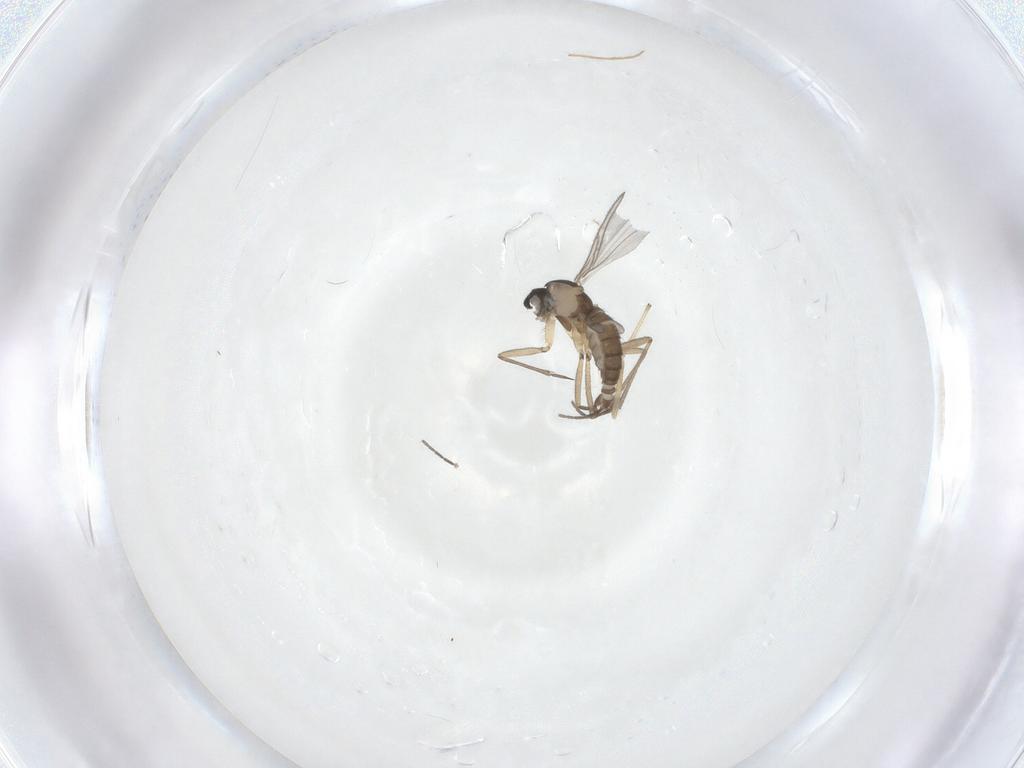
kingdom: Animalia
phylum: Arthropoda
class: Insecta
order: Diptera
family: Sciaridae
